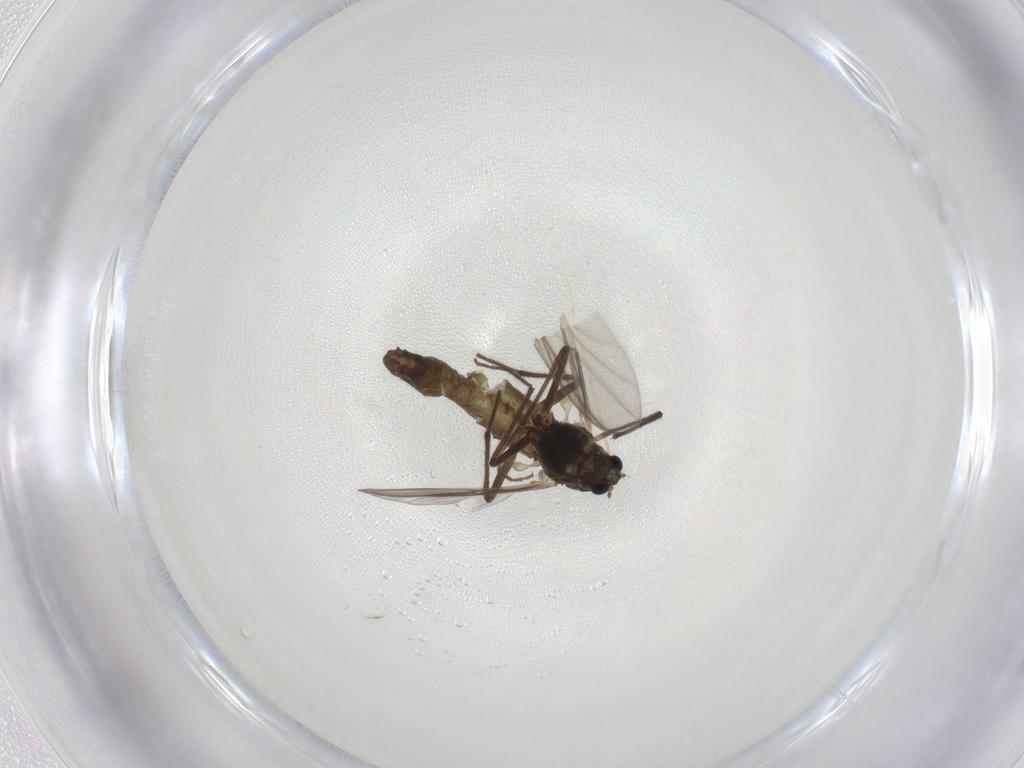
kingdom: Animalia
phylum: Arthropoda
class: Insecta
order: Diptera
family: Chironomidae
